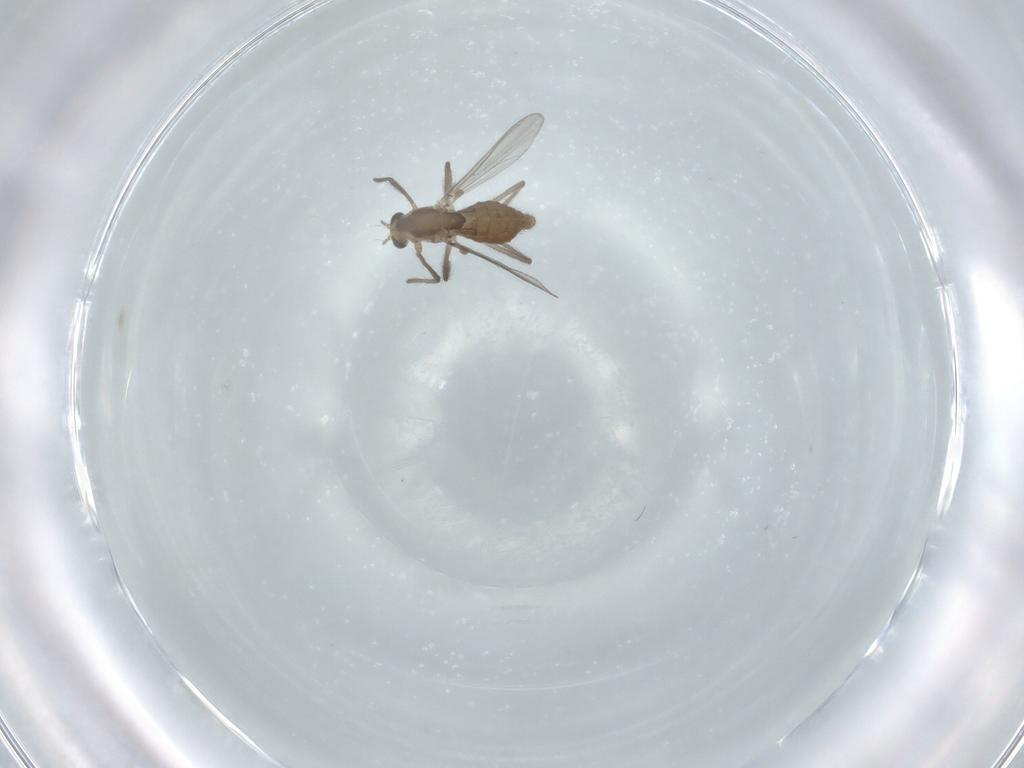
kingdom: Animalia
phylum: Arthropoda
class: Insecta
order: Diptera
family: Chironomidae
